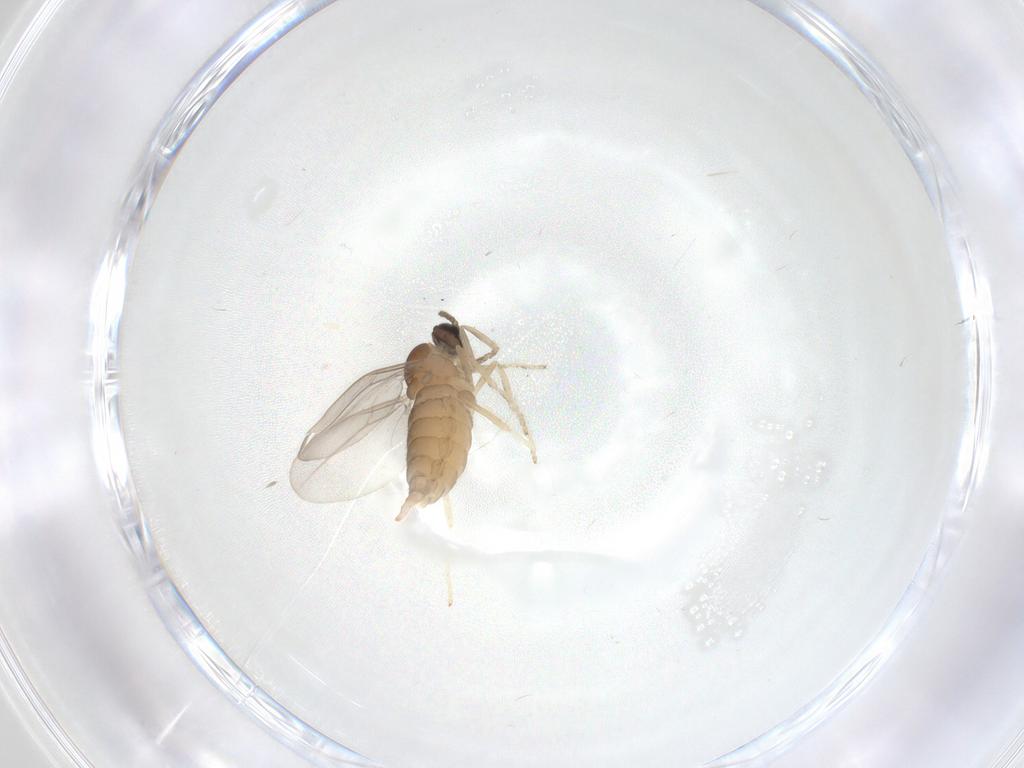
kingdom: Animalia
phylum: Arthropoda
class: Insecta
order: Diptera
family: Cecidomyiidae
